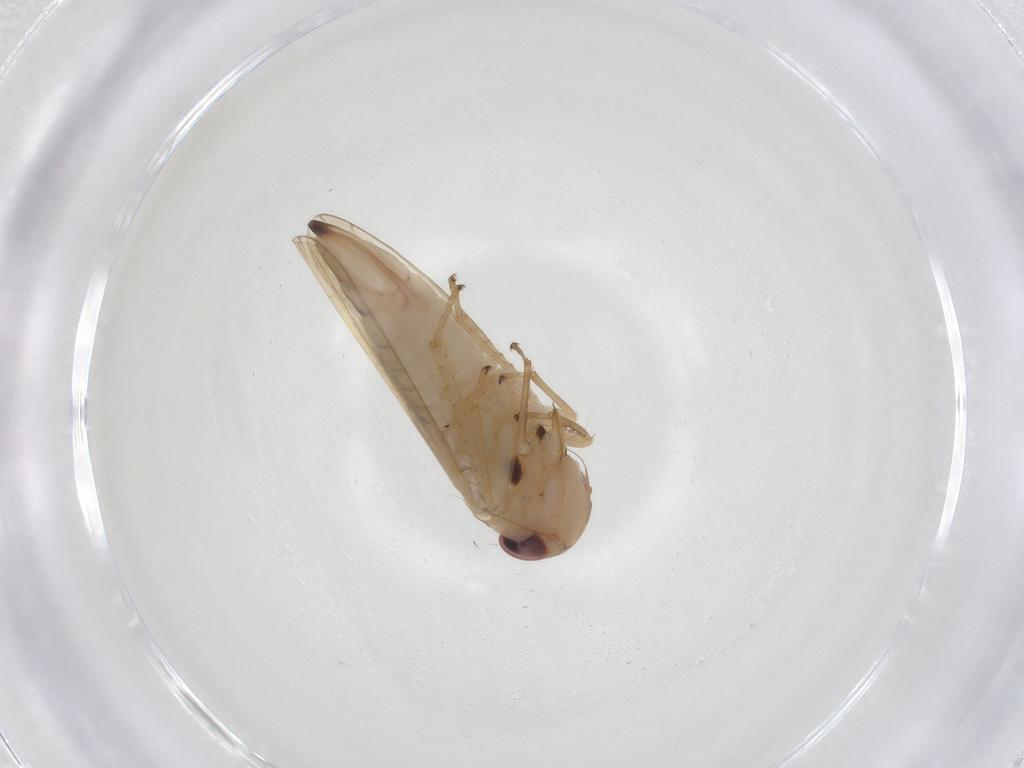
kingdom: Animalia
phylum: Arthropoda
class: Insecta
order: Hemiptera
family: Cicadellidae
